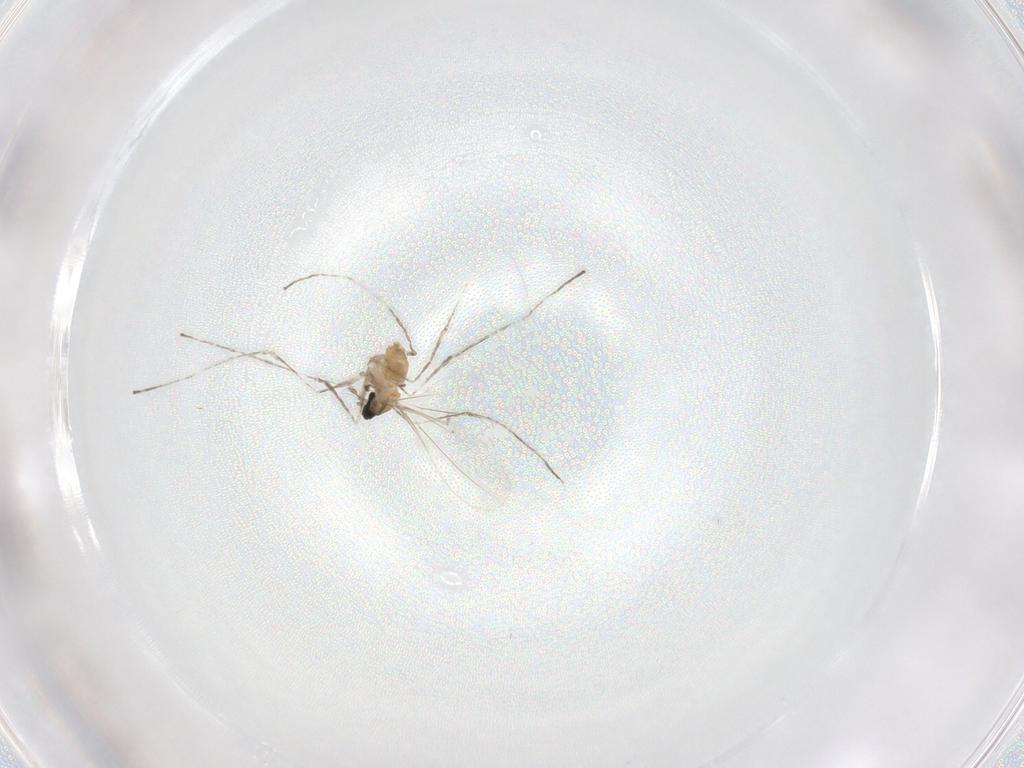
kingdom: Animalia
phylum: Arthropoda
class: Insecta
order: Diptera
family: Cecidomyiidae
